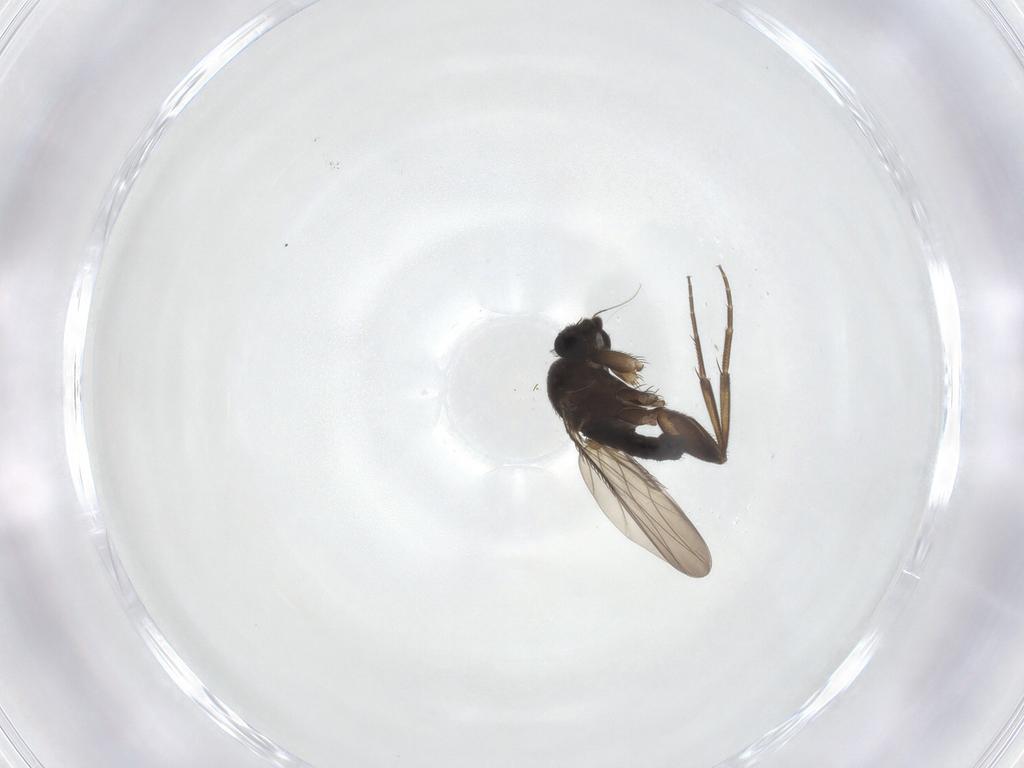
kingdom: Animalia
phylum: Arthropoda
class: Insecta
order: Diptera
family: Phoridae
